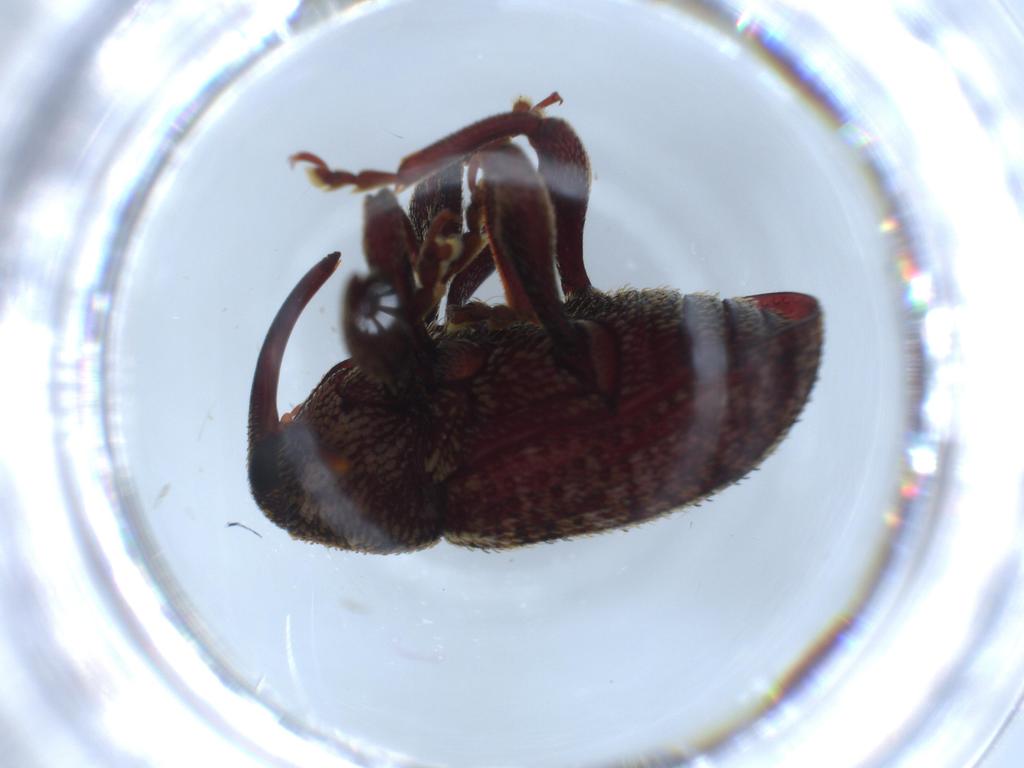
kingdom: Animalia
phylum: Arthropoda
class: Insecta
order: Coleoptera
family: Curculionidae
